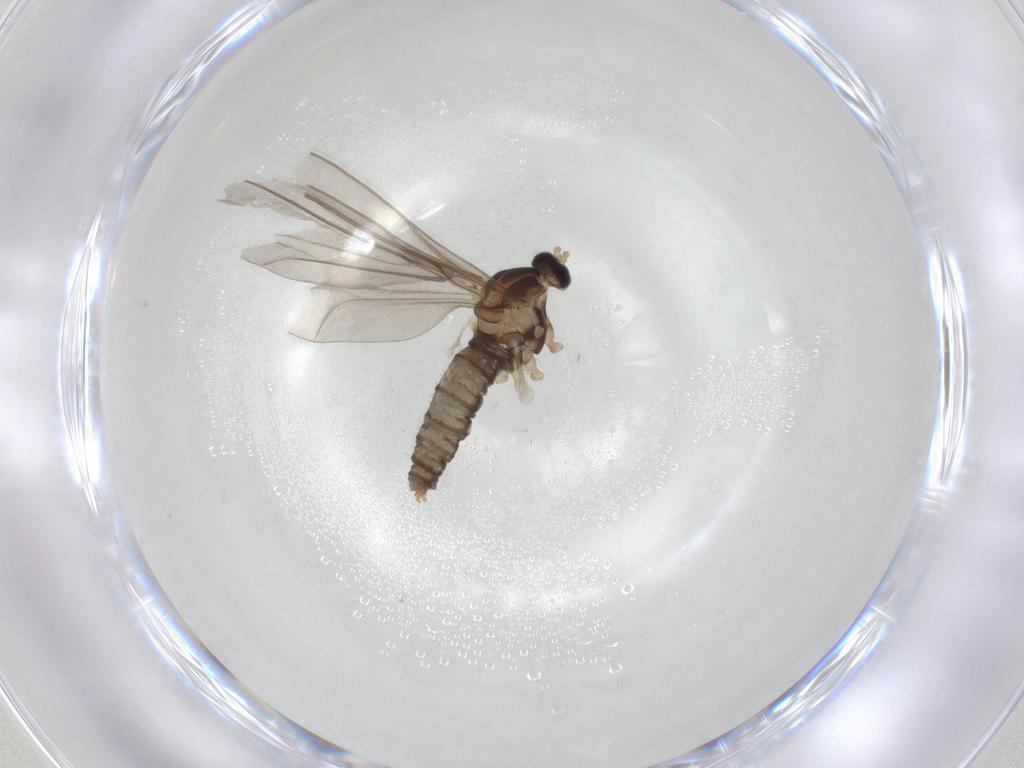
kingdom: Animalia
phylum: Arthropoda
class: Insecta
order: Diptera
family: Cecidomyiidae
